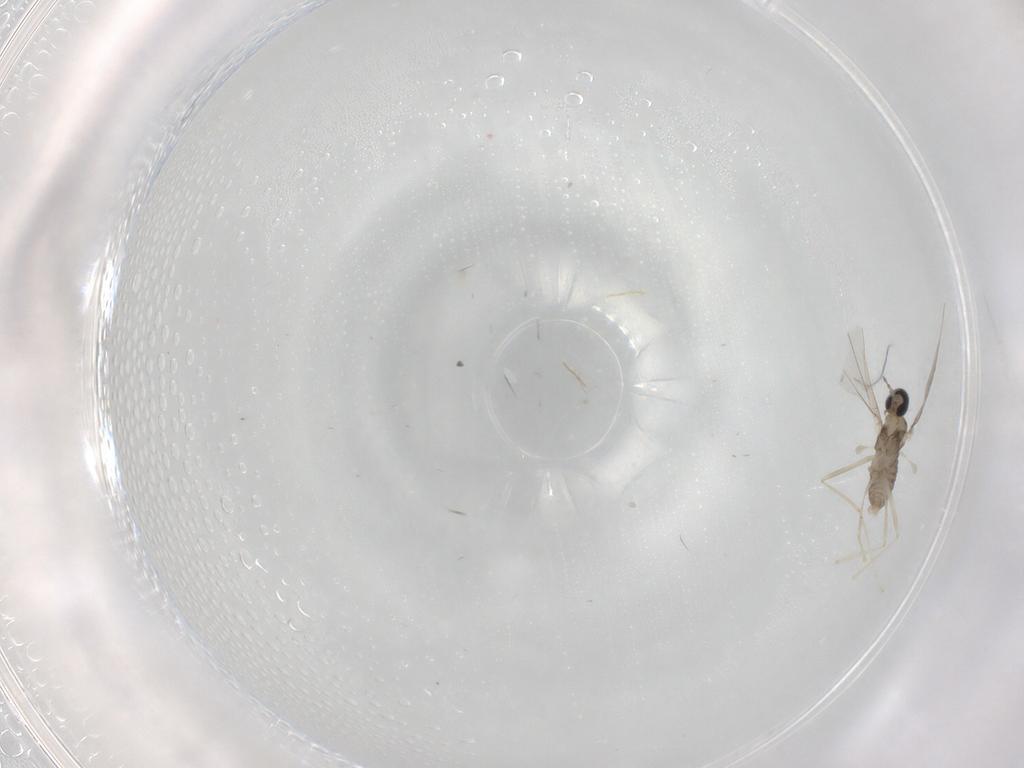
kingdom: Animalia
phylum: Arthropoda
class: Insecta
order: Diptera
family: Cecidomyiidae
